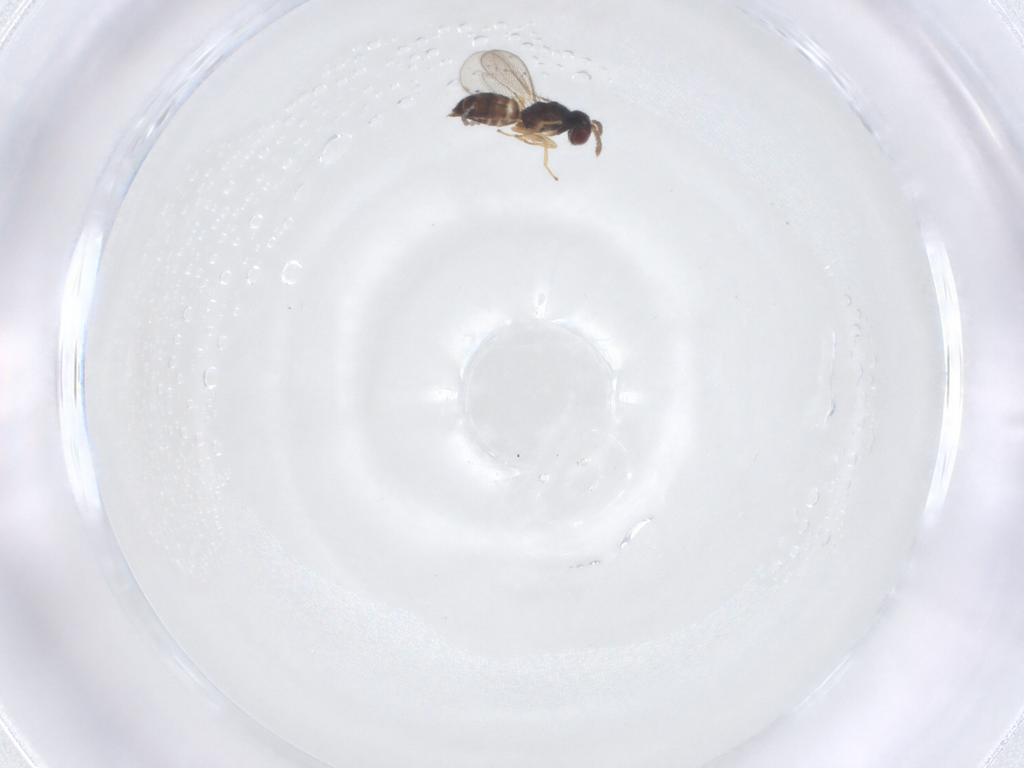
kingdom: Animalia
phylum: Arthropoda
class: Insecta
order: Hymenoptera
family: Eulophidae
